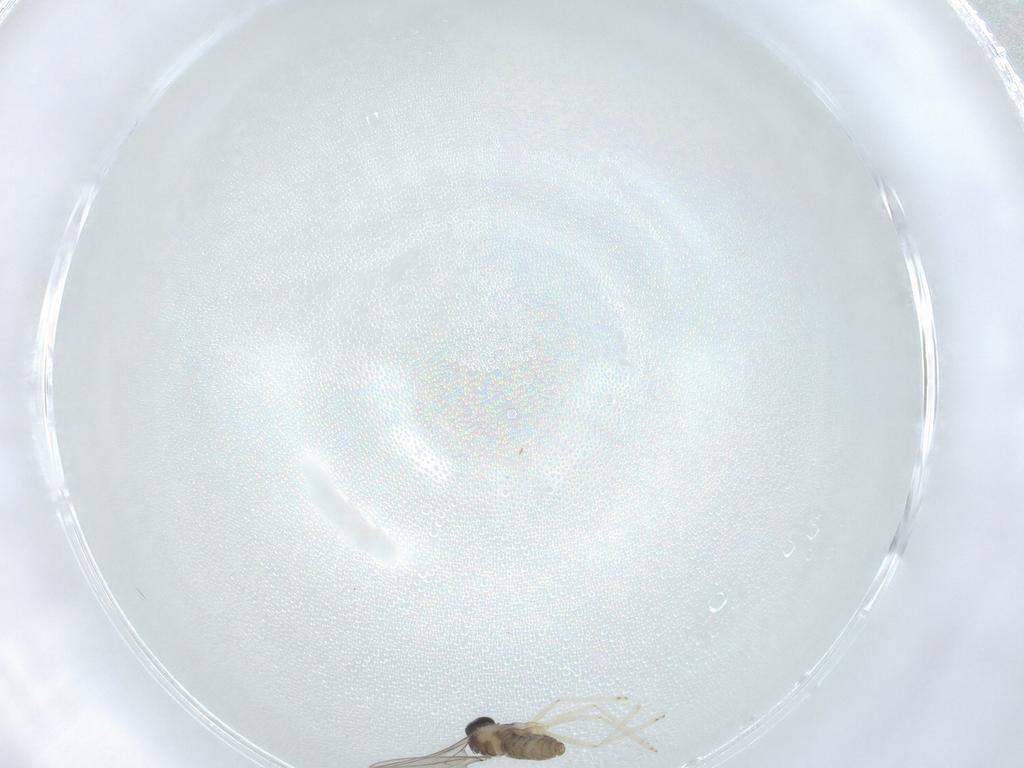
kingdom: Animalia
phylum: Arthropoda
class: Insecta
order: Diptera
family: Cecidomyiidae
